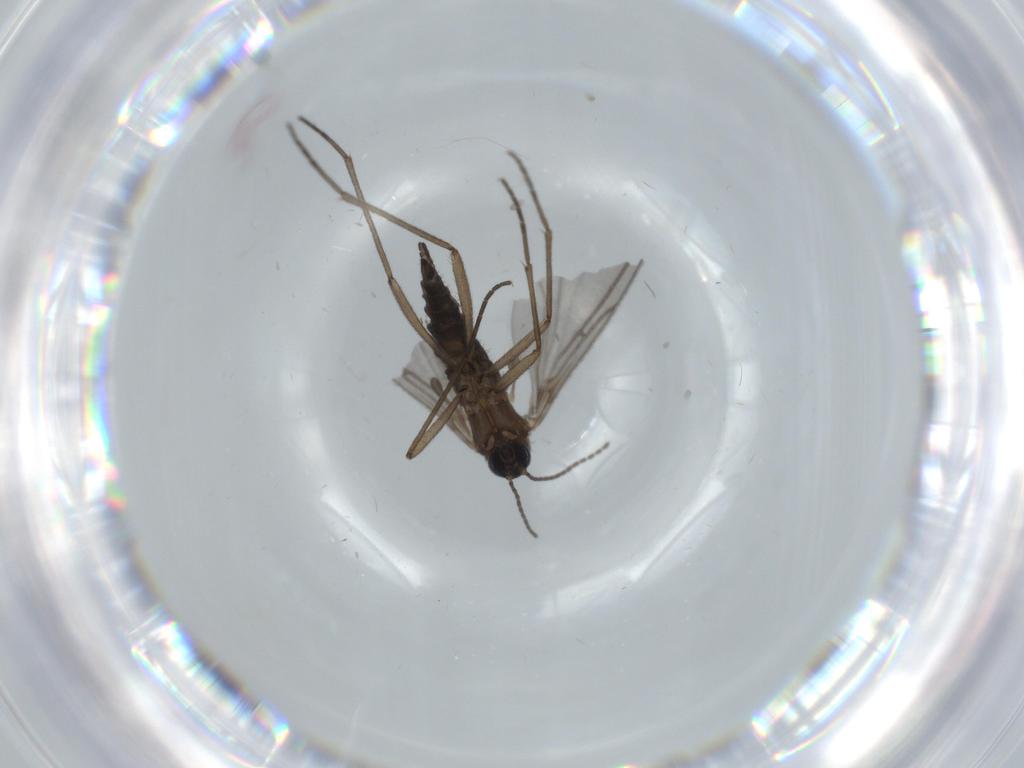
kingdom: Animalia
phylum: Arthropoda
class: Insecta
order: Diptera
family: Sciaridae
